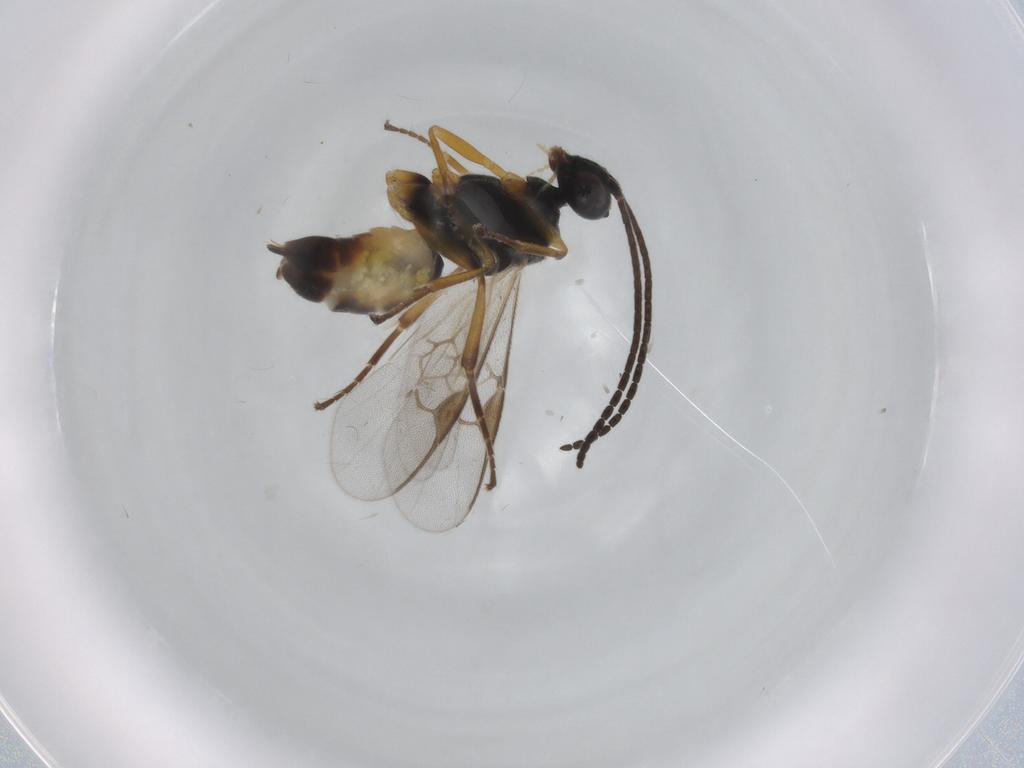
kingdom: Animalia
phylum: Arthropoda
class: Insecta
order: Hymenoptera
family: Braconidae
